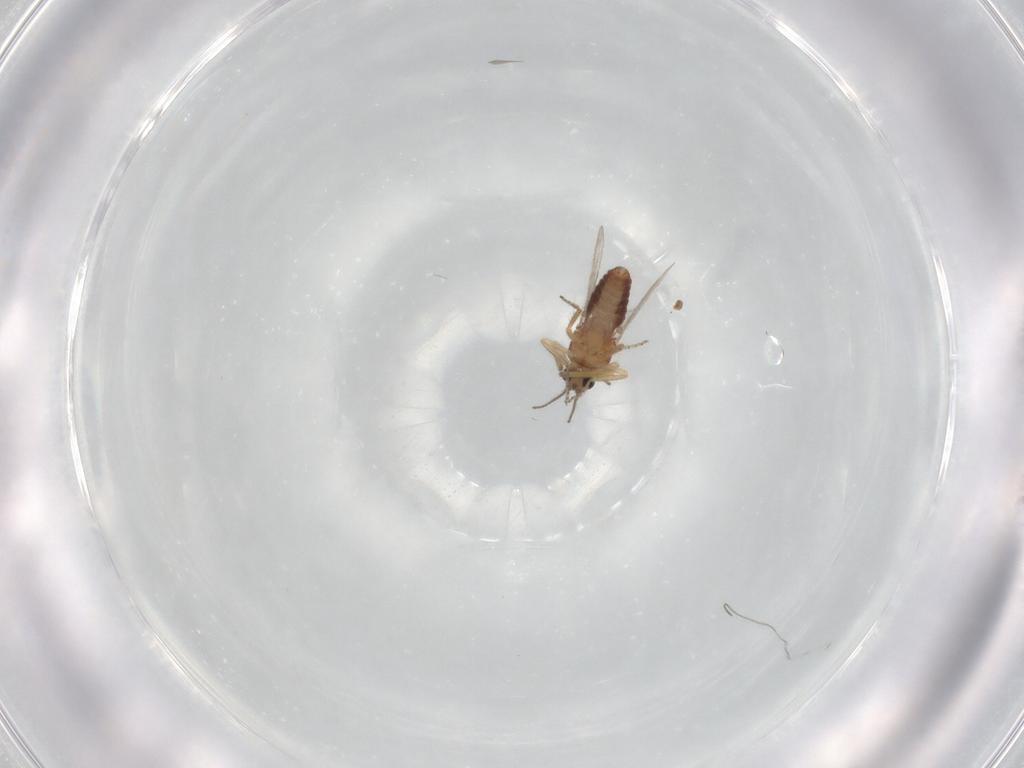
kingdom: Animalia
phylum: Arthropoda
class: Insecta
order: Diptera
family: Ceratopogonidae
